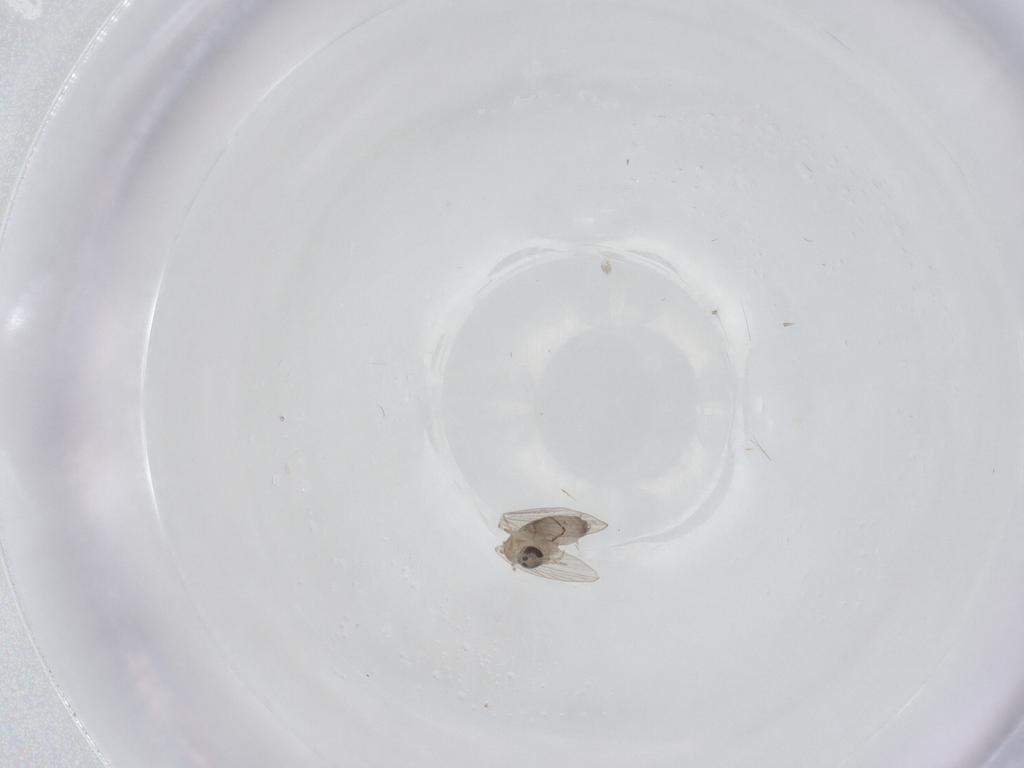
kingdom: Animalia
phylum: Arthropoda
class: Insecta
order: Diptera
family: Psychodidae
